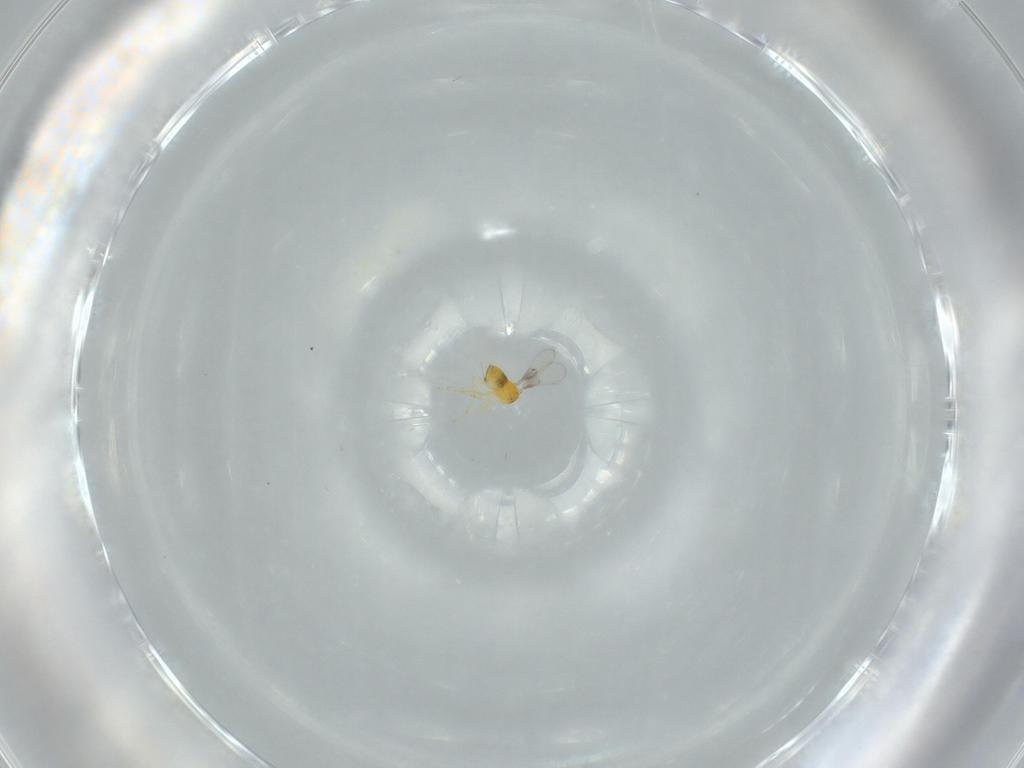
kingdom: Animalia
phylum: Arthropoda
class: Insecta
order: Hymenoptera
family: Trichogrammatidae
